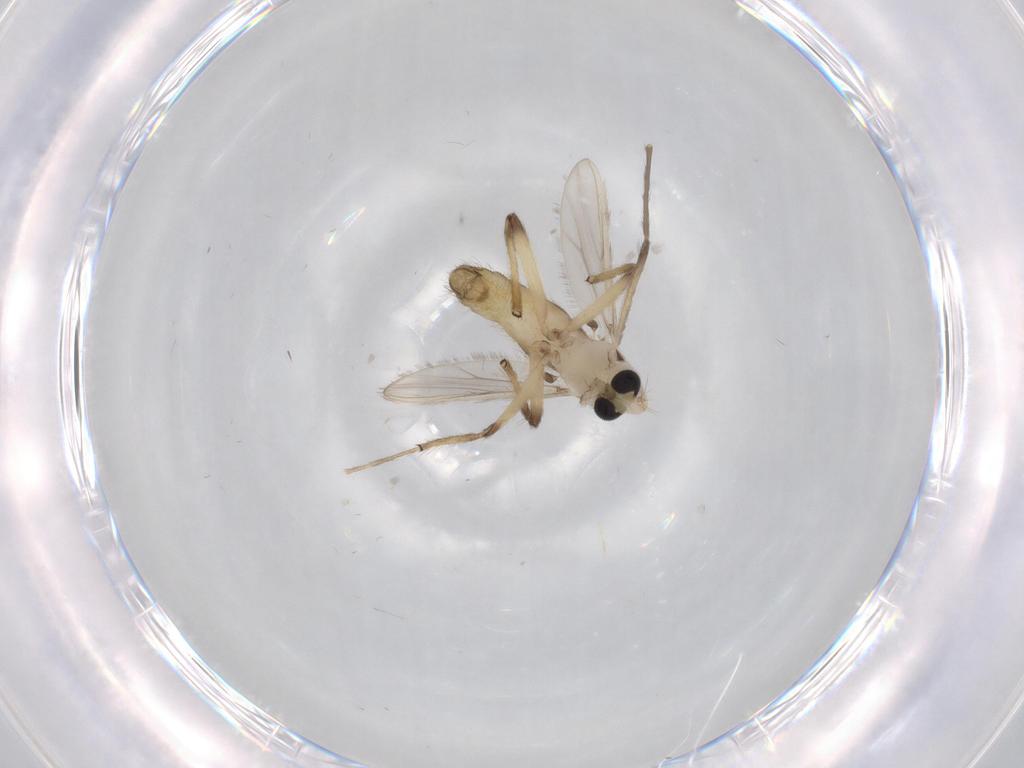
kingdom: Animalia
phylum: Arthropoda
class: Insecta
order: Diptera
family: Chironomidae
